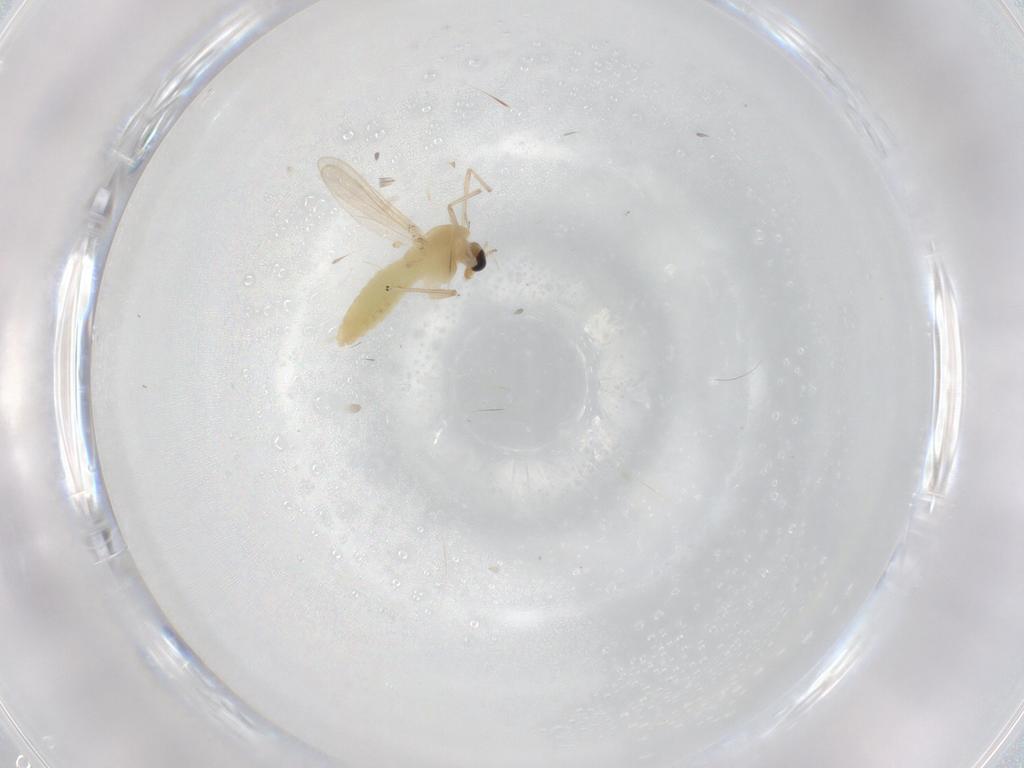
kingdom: Animalia
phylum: Arthropoda
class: Insecta
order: Diptera
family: Chironomidae
